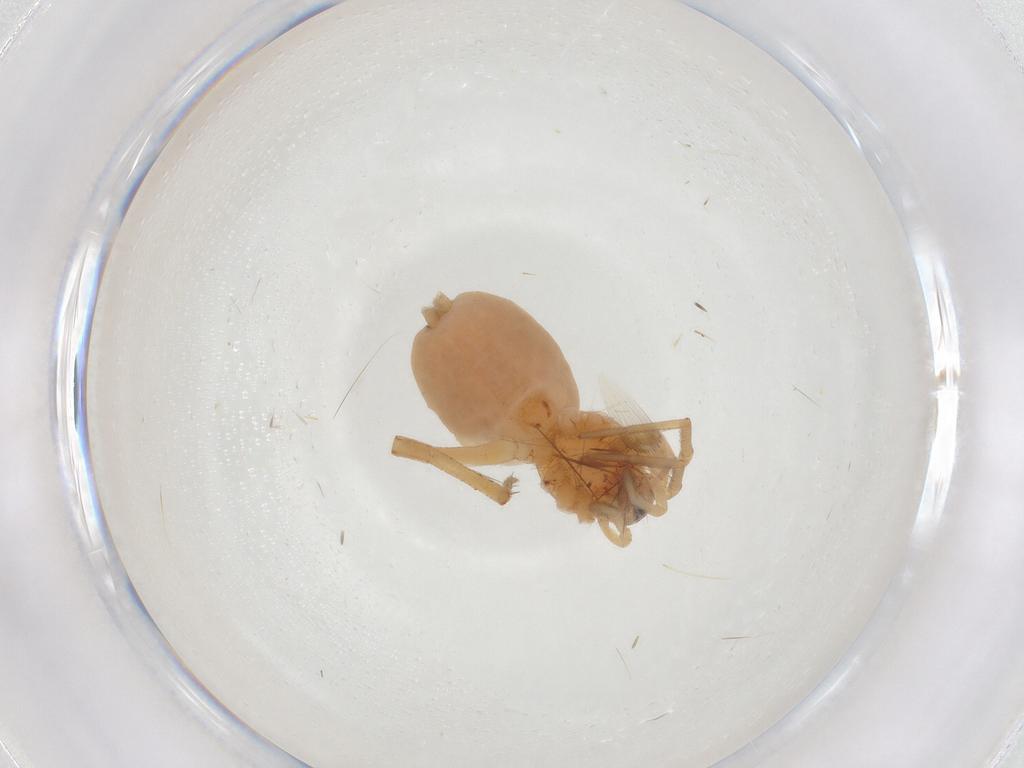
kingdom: Animalia
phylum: Arthropoda
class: Arachnida
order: Araneae
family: Gnaphosidae
